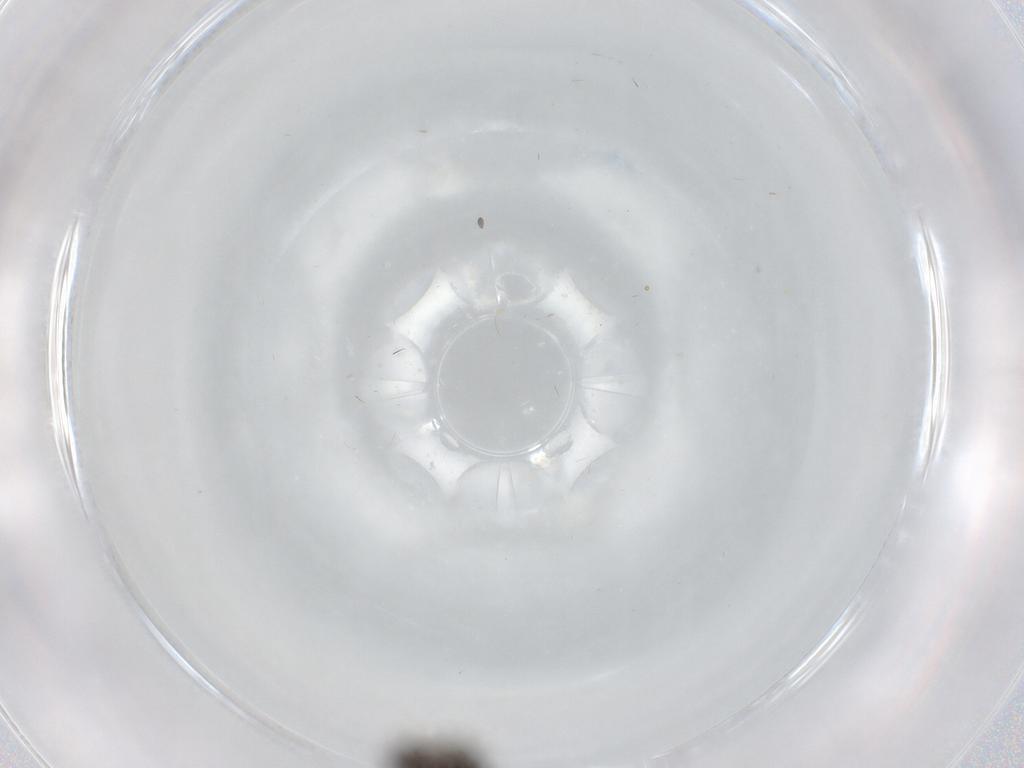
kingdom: Animalia
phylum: Arthropoda
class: Insecta
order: Diptera
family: Psychodidae
